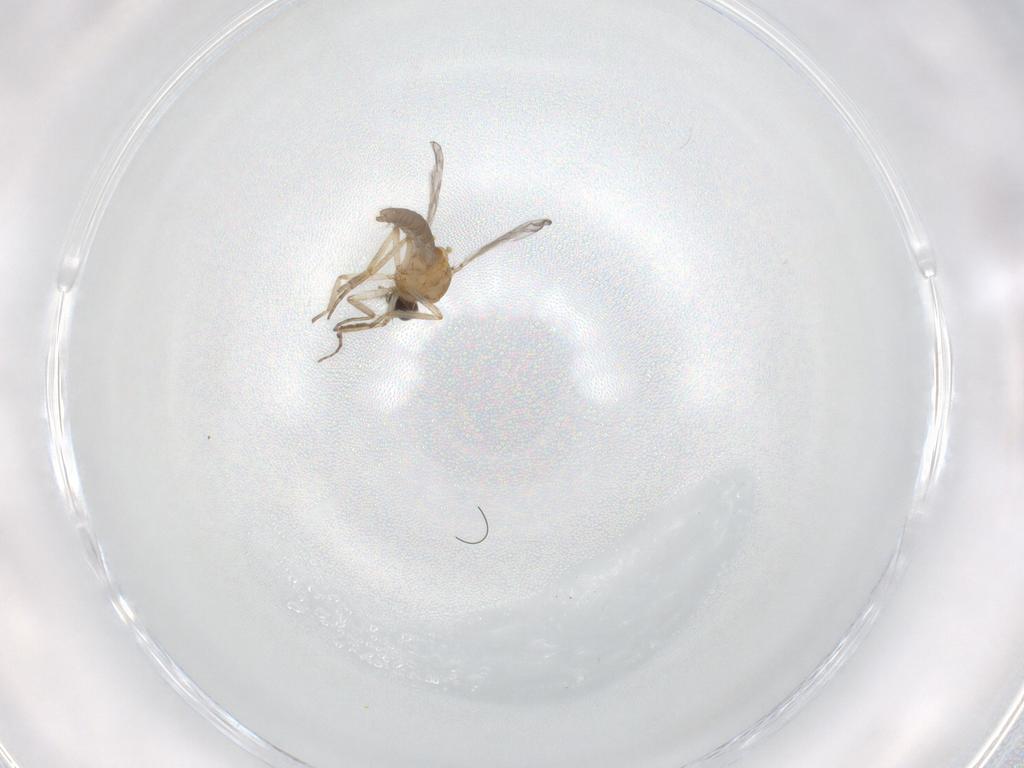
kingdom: Animalia
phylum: Arthropoda
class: Insecta
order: Diptera
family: Ceratopogonidae
